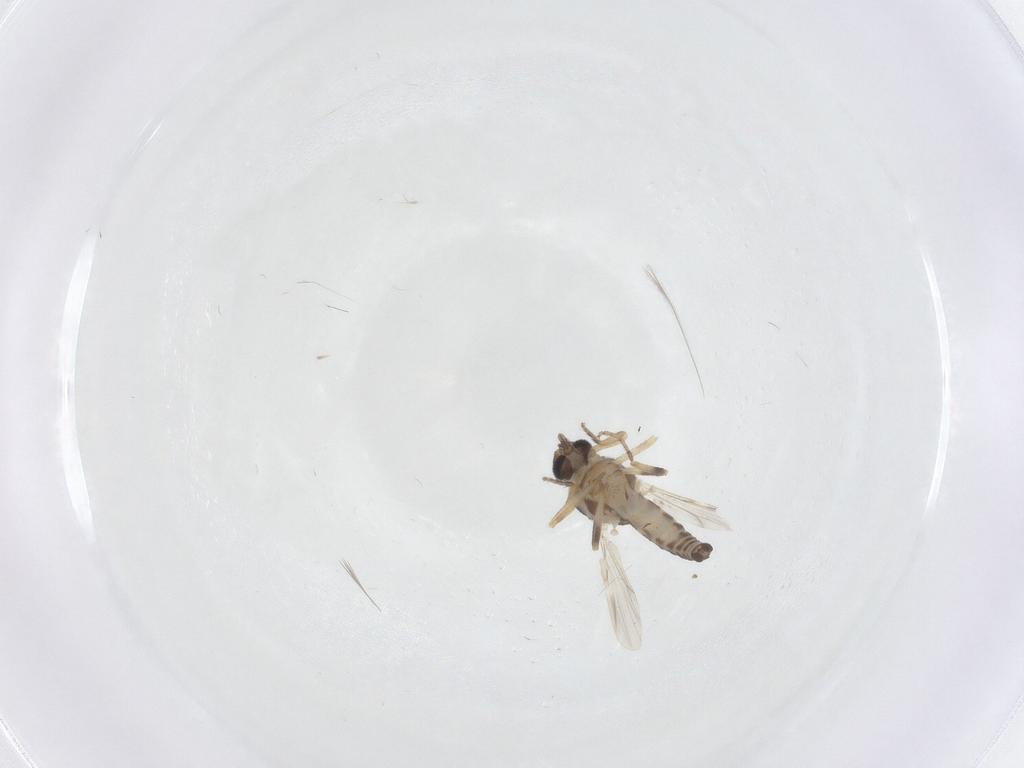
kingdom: Animalia
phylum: Arthropoda
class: Insecta
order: Diptera
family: Ceratopogonidae
